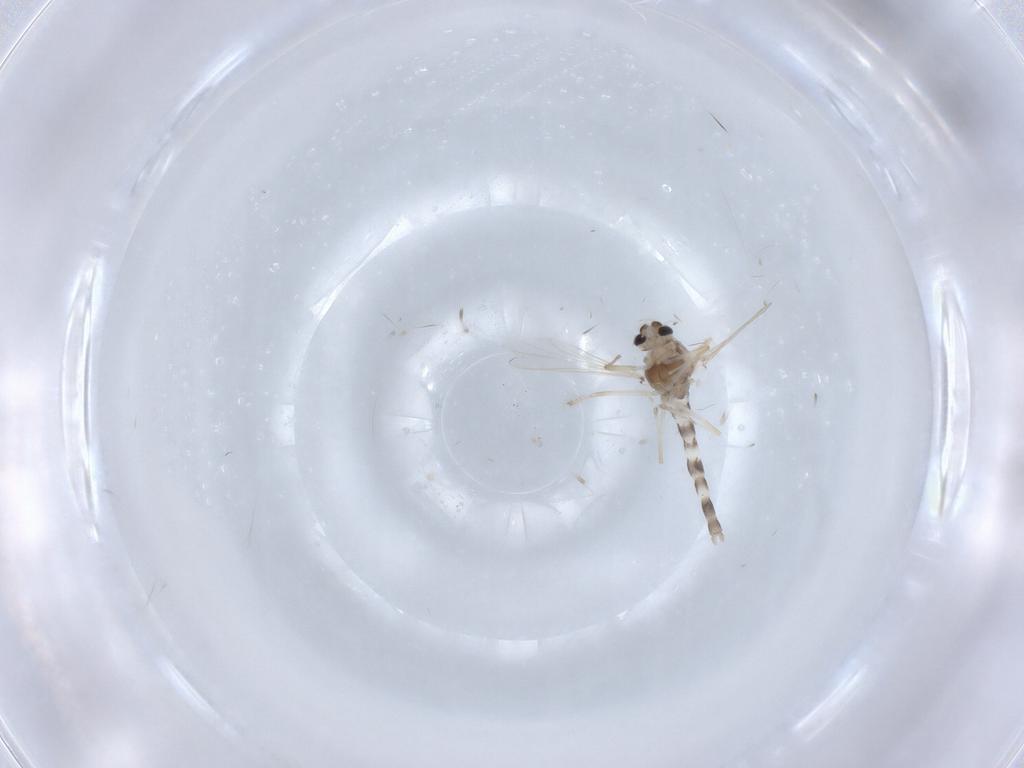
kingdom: Animalia
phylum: Arthropoda
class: Insecta
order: Diptera
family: Chironomidae
